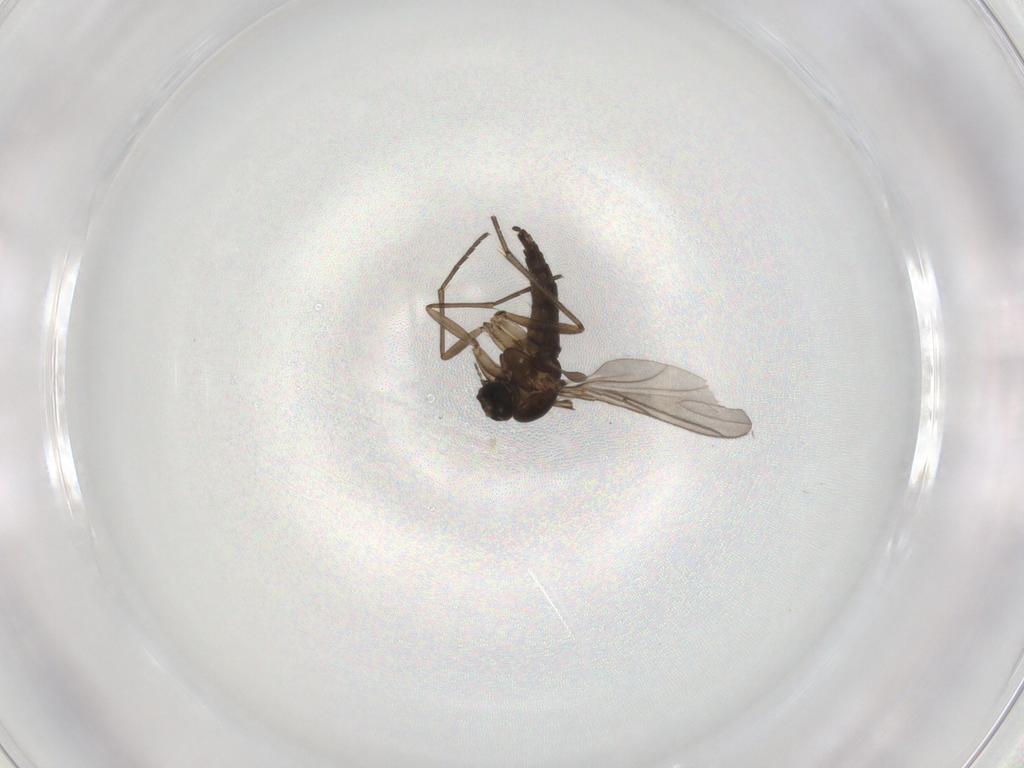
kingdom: Animalia
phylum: Arthropoda
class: Insecta
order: Diptera
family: Sciaridae
